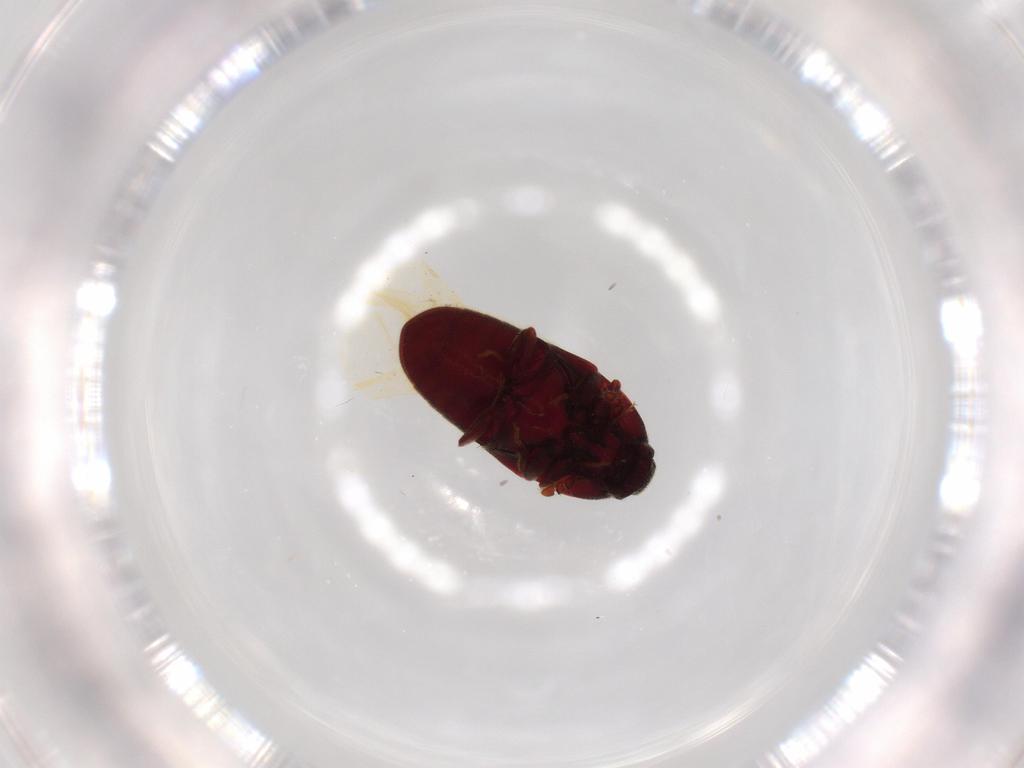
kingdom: Animalia
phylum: Arthropoda
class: Insecta
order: Coleoptera
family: Throscidae
